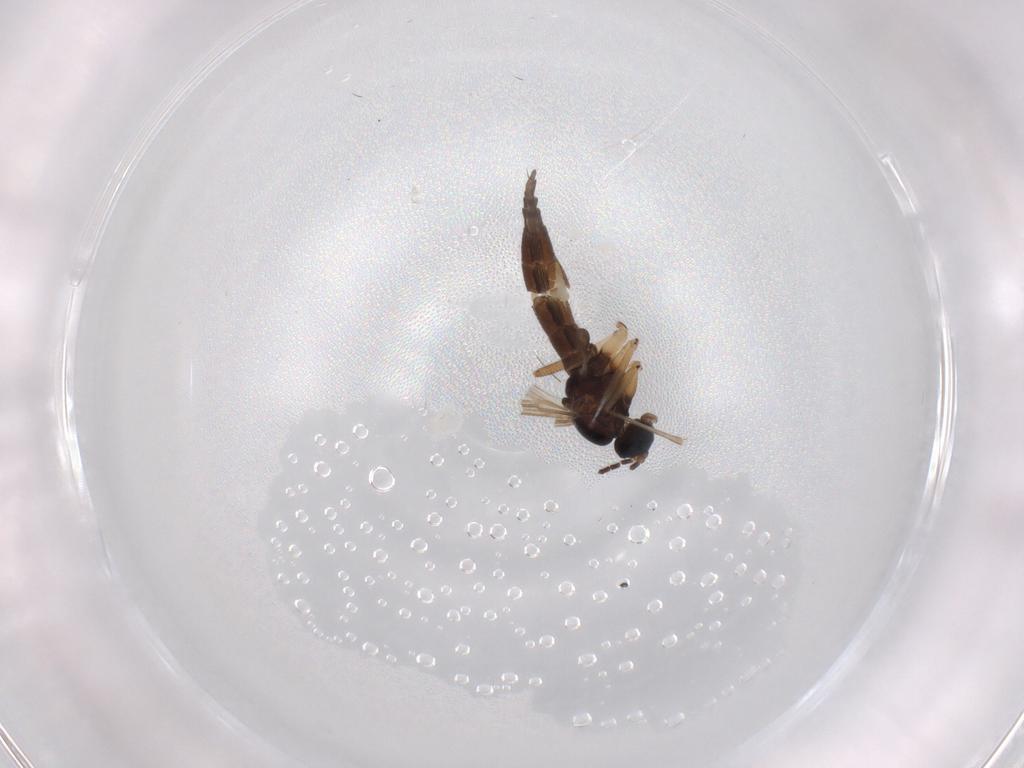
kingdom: Animalia
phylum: Arthropoda
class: Insecta
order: Diptera
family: Sciaridae
